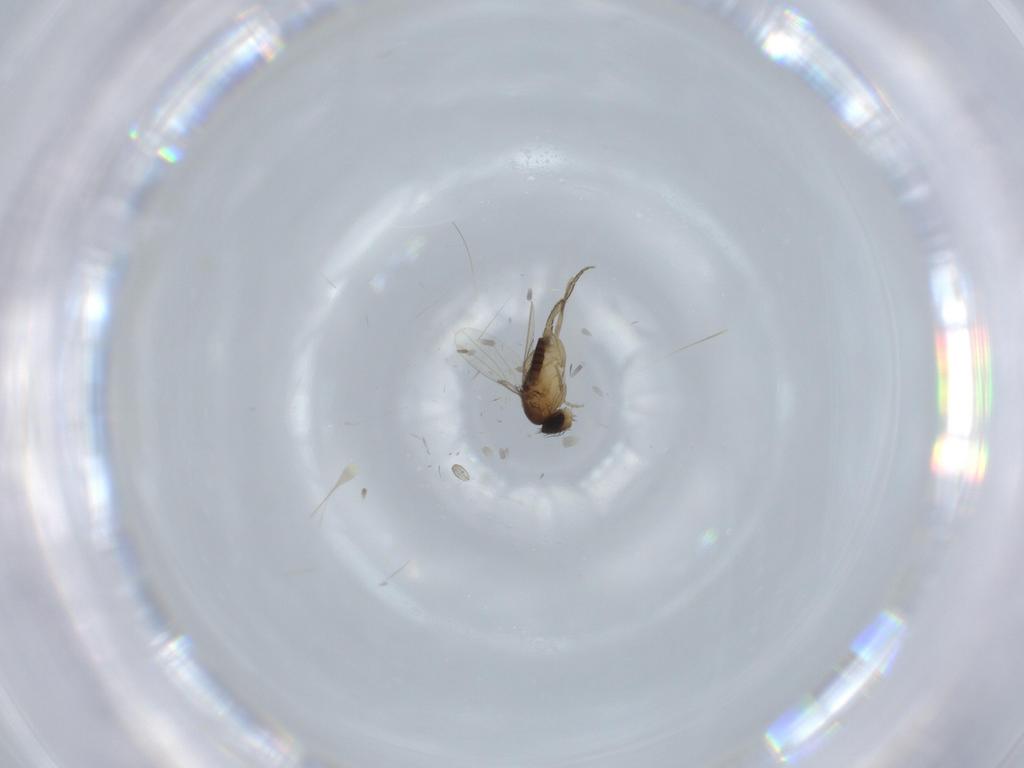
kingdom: Animalia
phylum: Arthropoda
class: Insecta
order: Diptera
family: Phoridae
